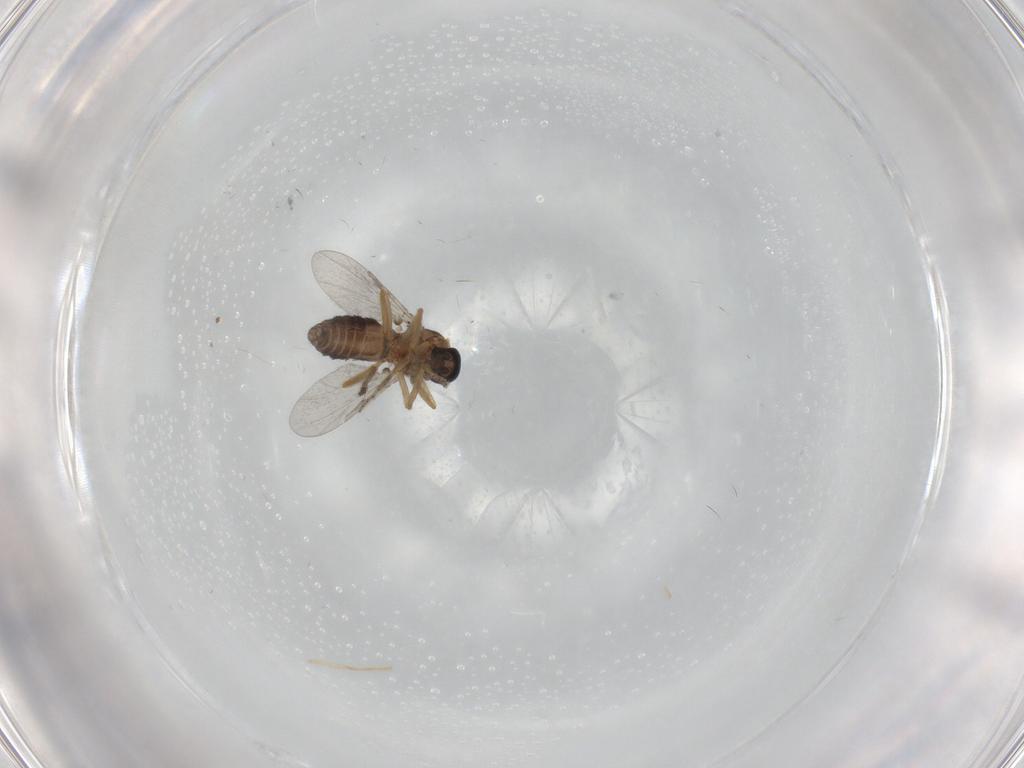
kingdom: Animalia
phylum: Arthropoda
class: Insecta
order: Diptera
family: Ceratopogonidae
